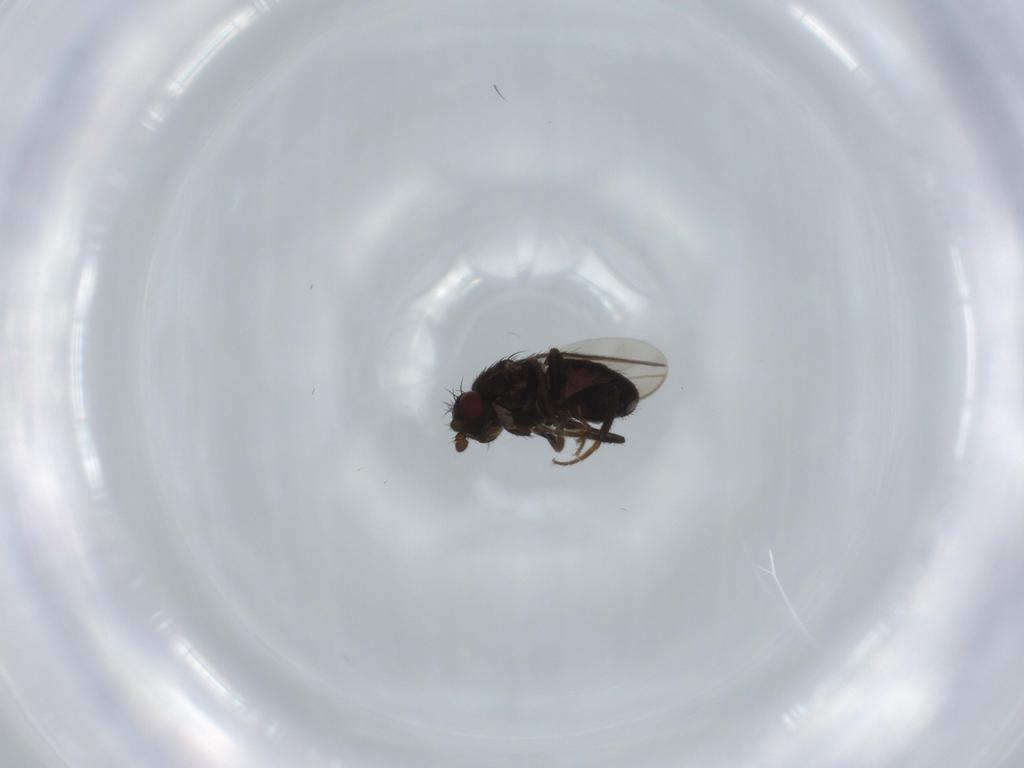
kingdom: Animalia
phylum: Arthropoda
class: Insecta
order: Diptera
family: Sphaeroceridae
